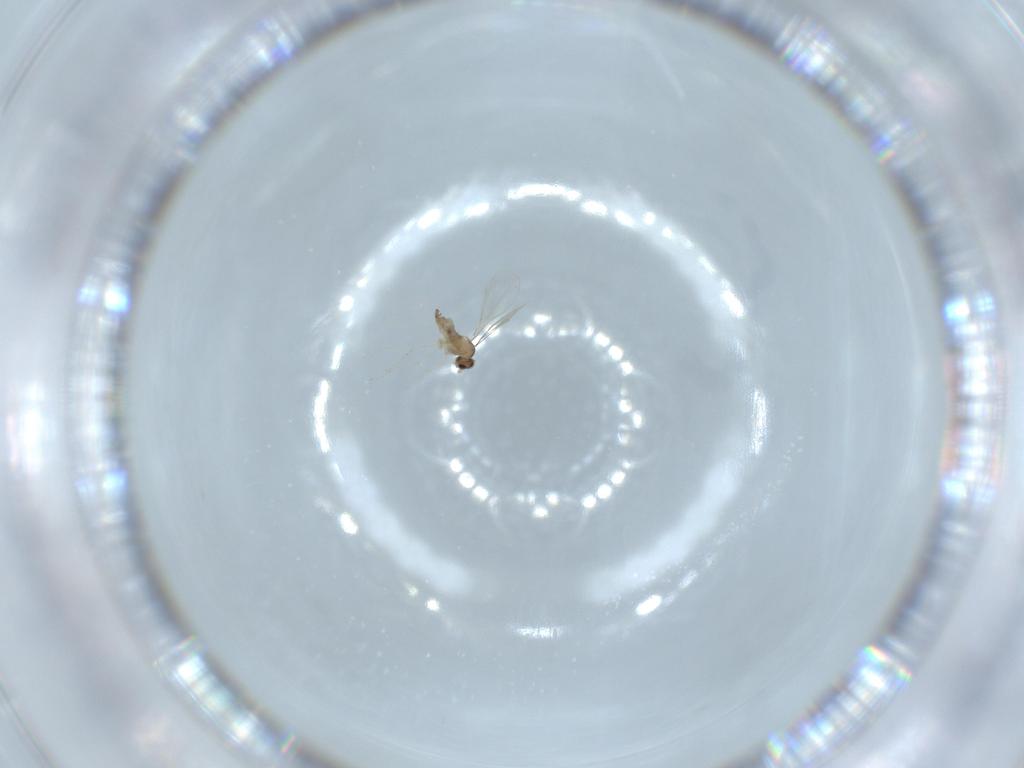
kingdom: Animalia
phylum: Arthropoda
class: Insecta
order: Diptera
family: Cecidomyiidae
